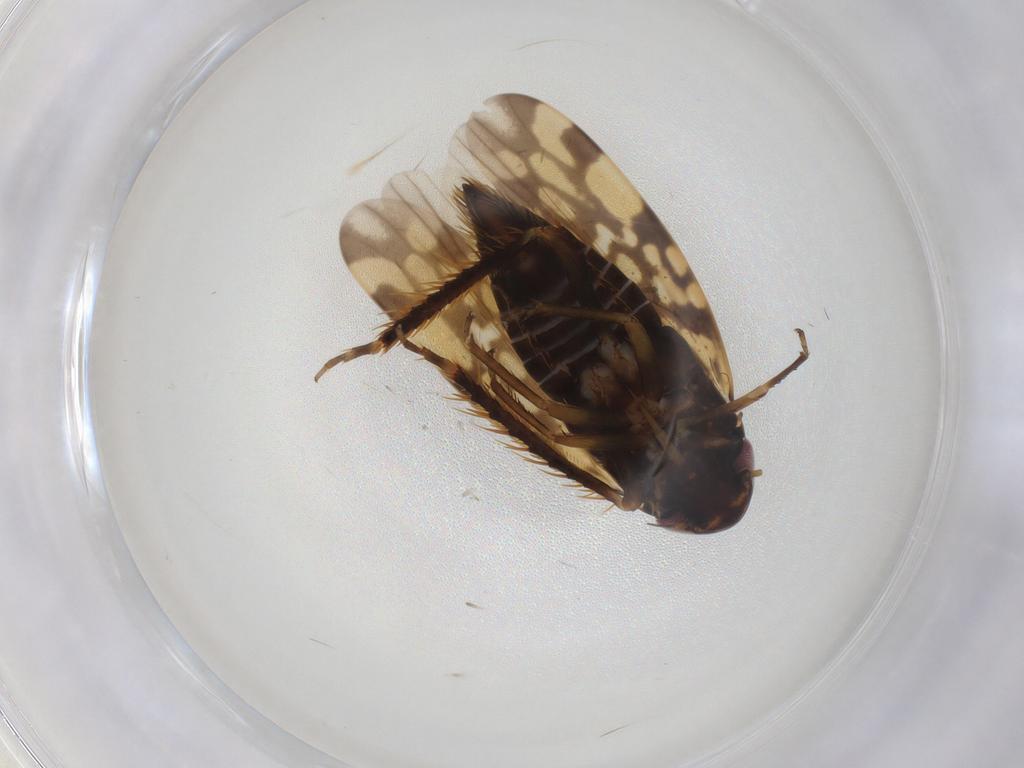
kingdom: Animalia
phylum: Arthropoda
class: Insecta
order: Hemiptera
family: Cicadellidae
